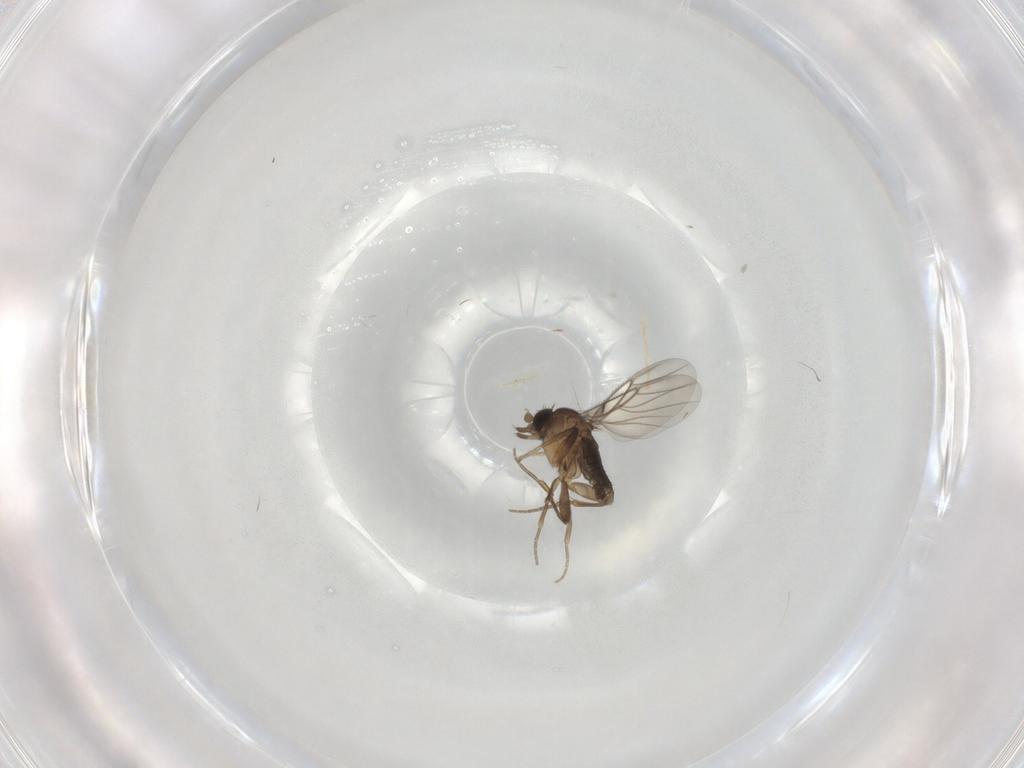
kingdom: Animalia
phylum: Arthropoda
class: Insecta
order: Diptera
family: Phoridae
